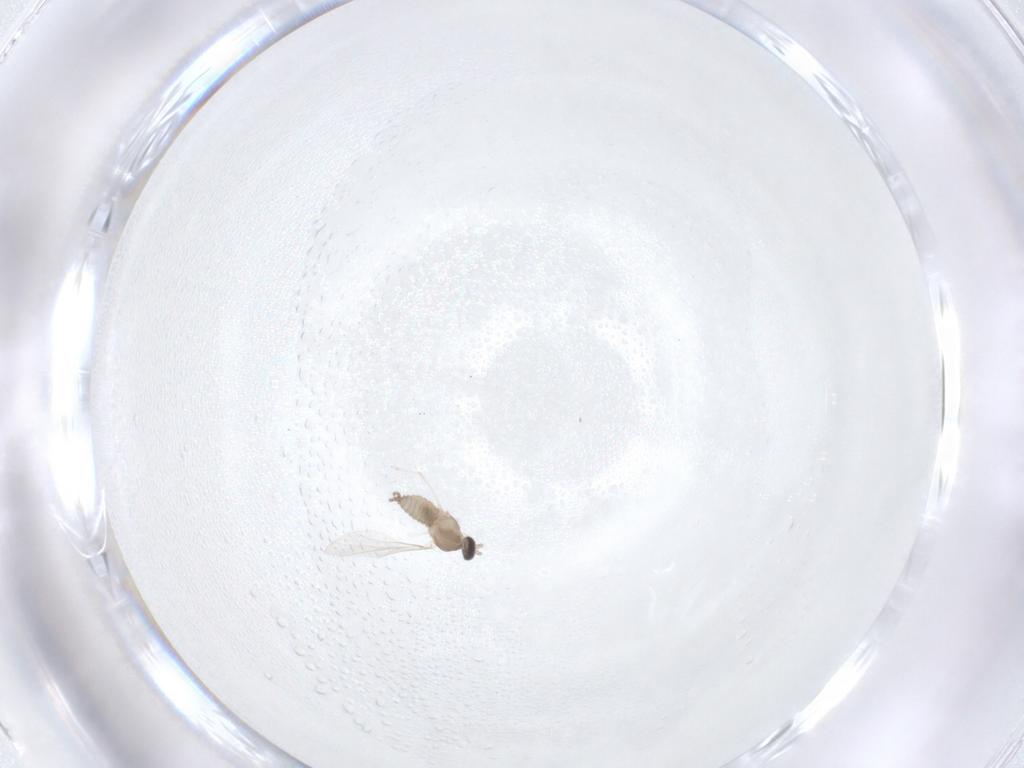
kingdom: Animalia
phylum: Arthropoda
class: Insecta
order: Diptera
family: Cecidomyiidae
